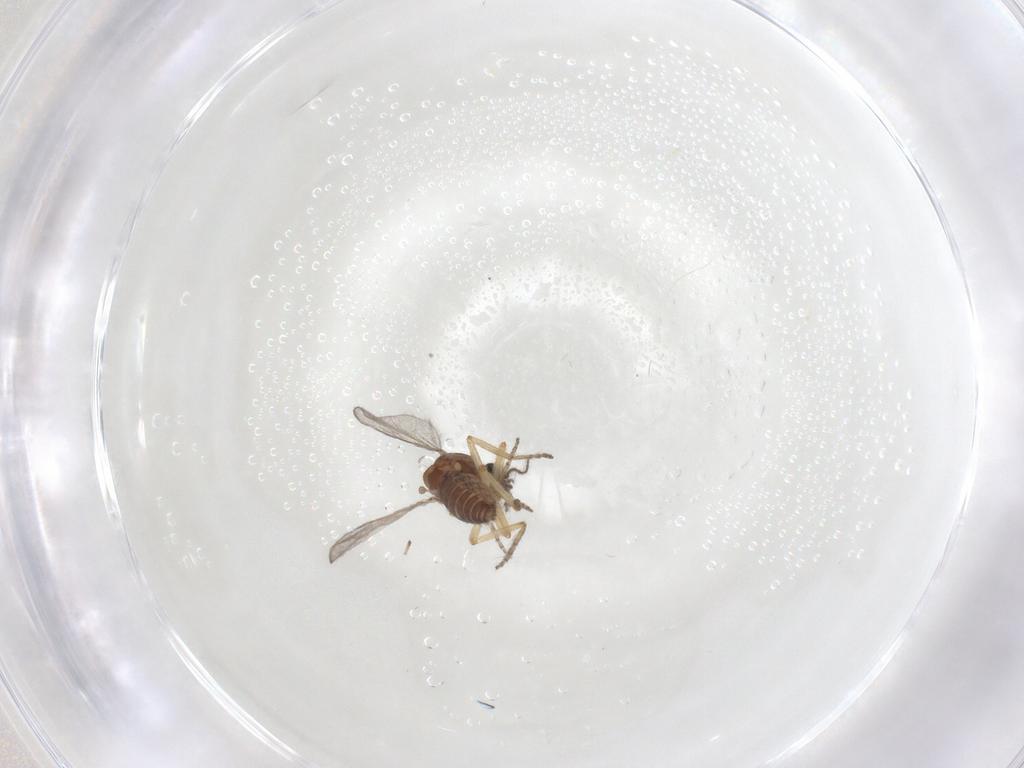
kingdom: Animalia
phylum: Arthropoda
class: Insecta
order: Diptera
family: Ceratopogonidae
